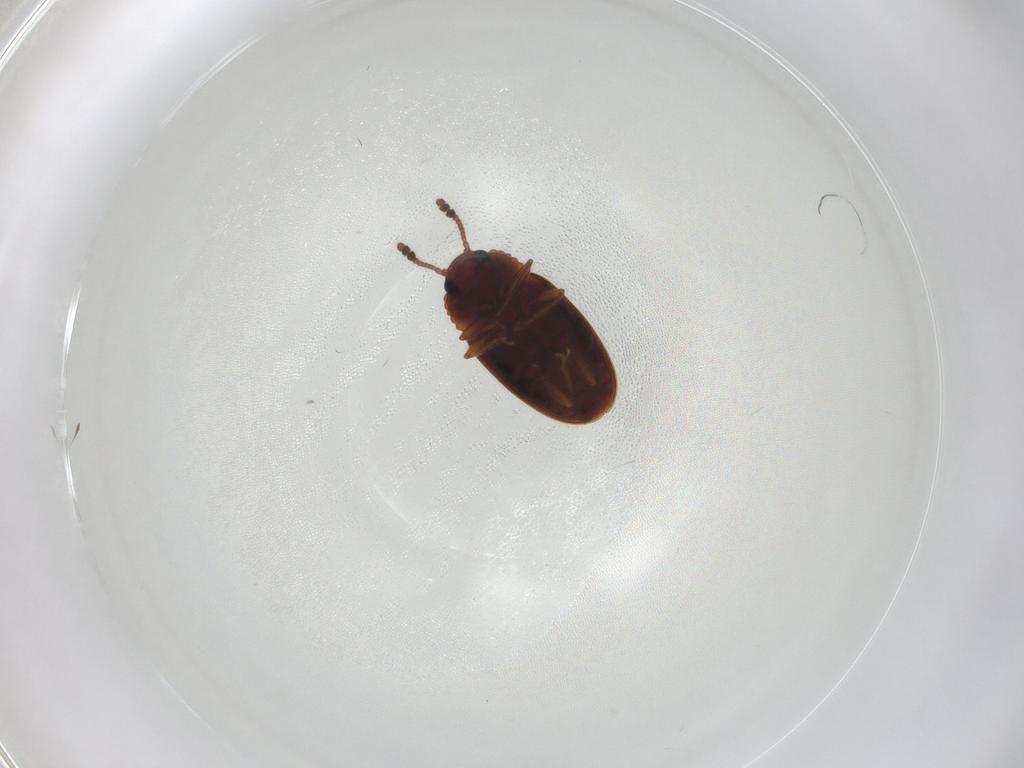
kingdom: Animalia
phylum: Arthropoda
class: Insecta
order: Coleoptera
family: Erotylidae
